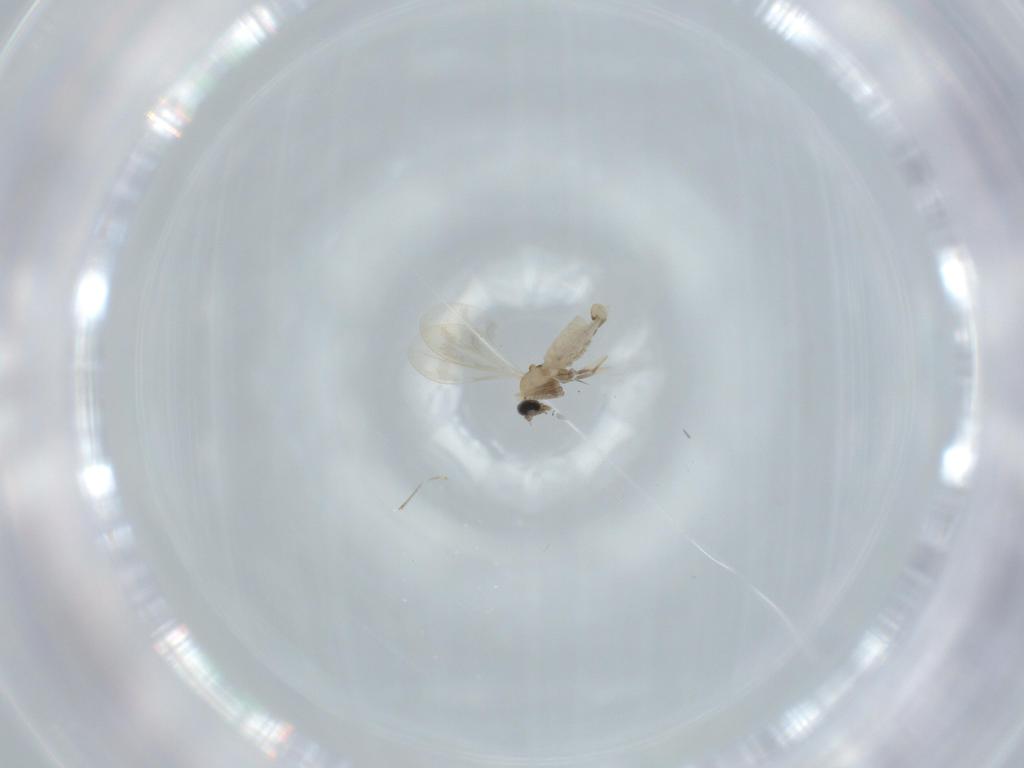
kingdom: Animalia
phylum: Arthropoda
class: Insecta
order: Diptera
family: Cecidomyiidae
